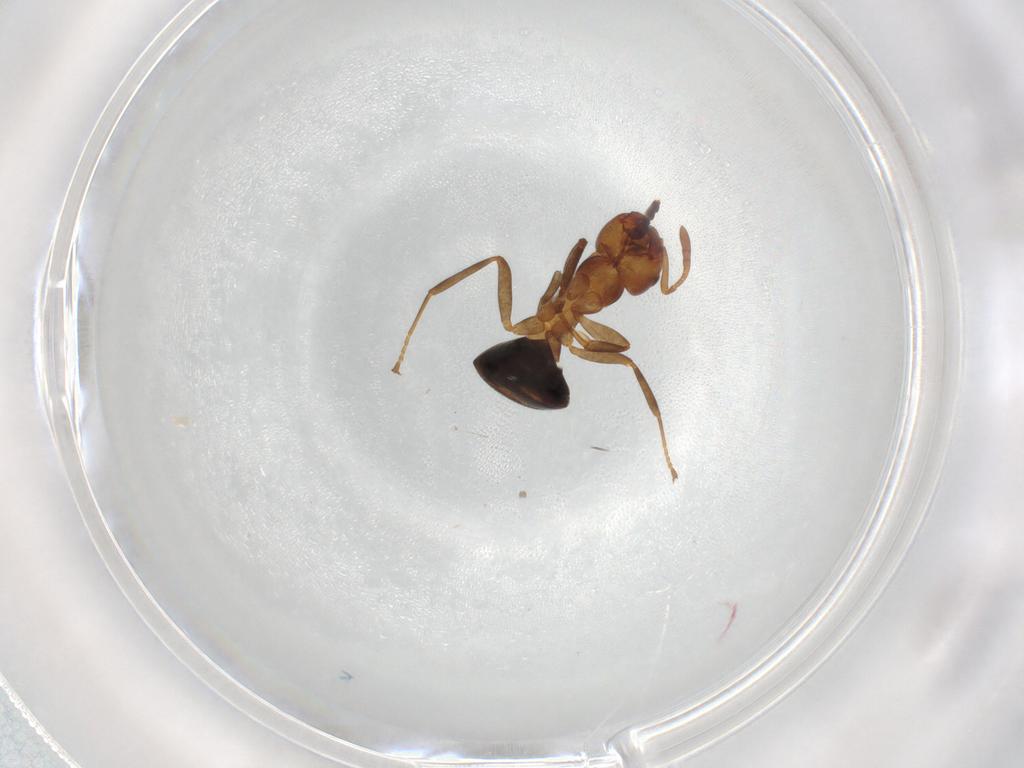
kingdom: Animalia
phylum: Arthropoda
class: Insecta
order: Hymenoptera
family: Formicidae
